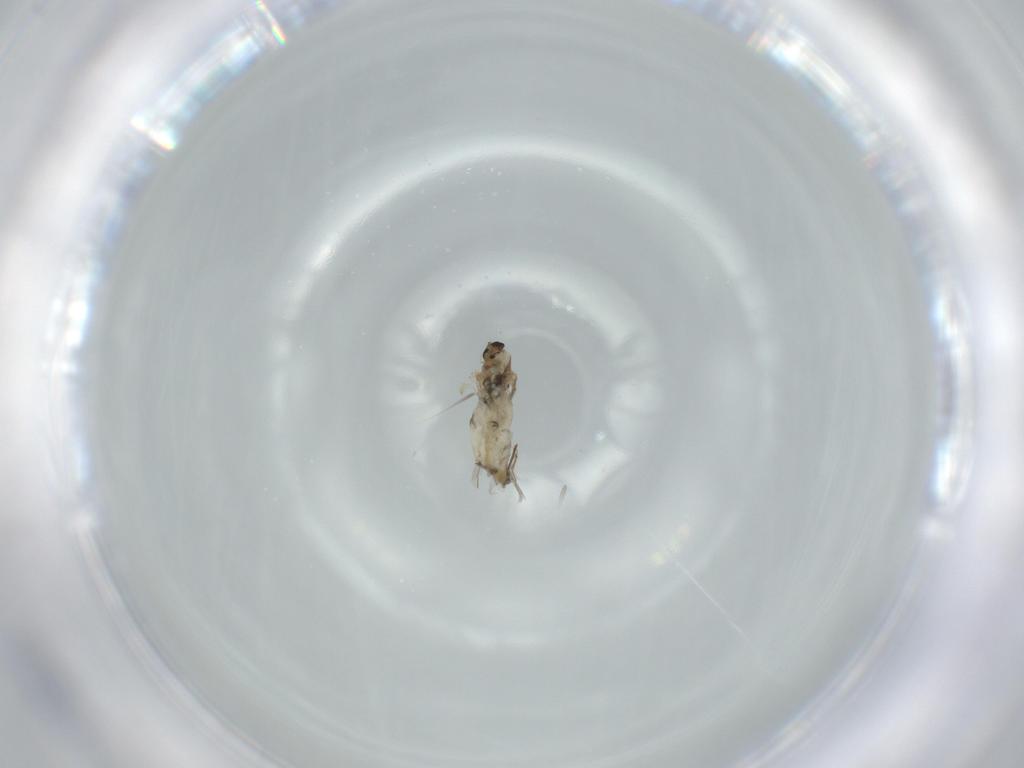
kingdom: Animalia
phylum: Arthropoda
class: Insecta
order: Diptera
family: Cecidomyiidae
